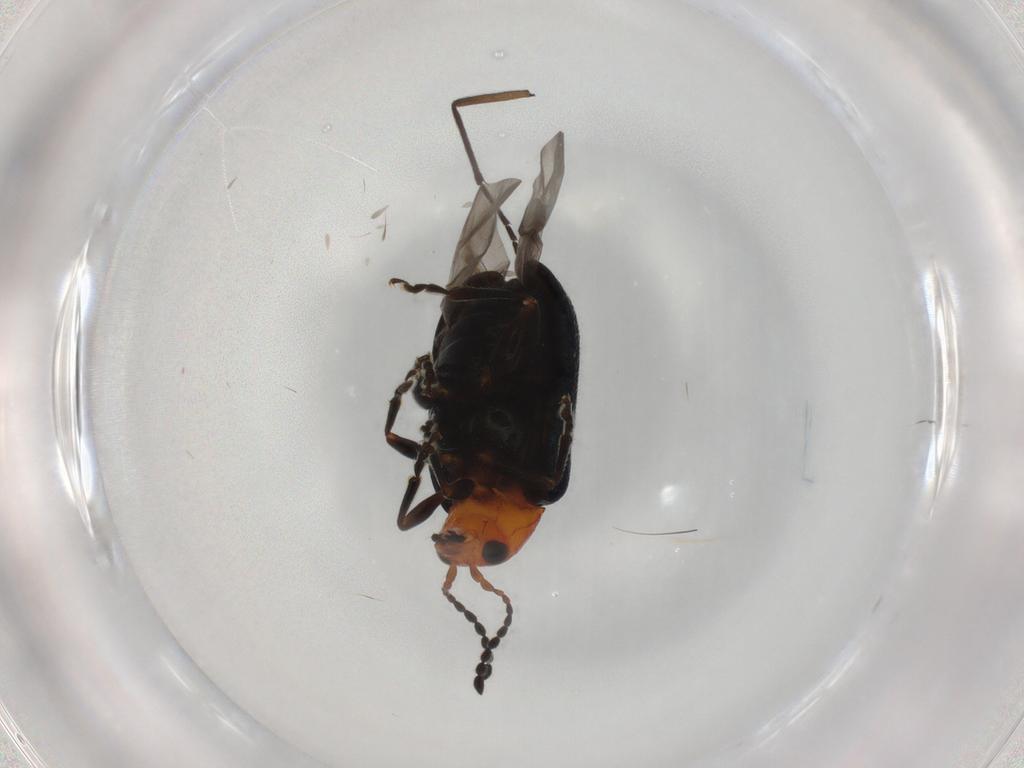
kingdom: Animalia
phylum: Arthropoda
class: Insecta
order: Coleoptera
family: Chrysomelidae
